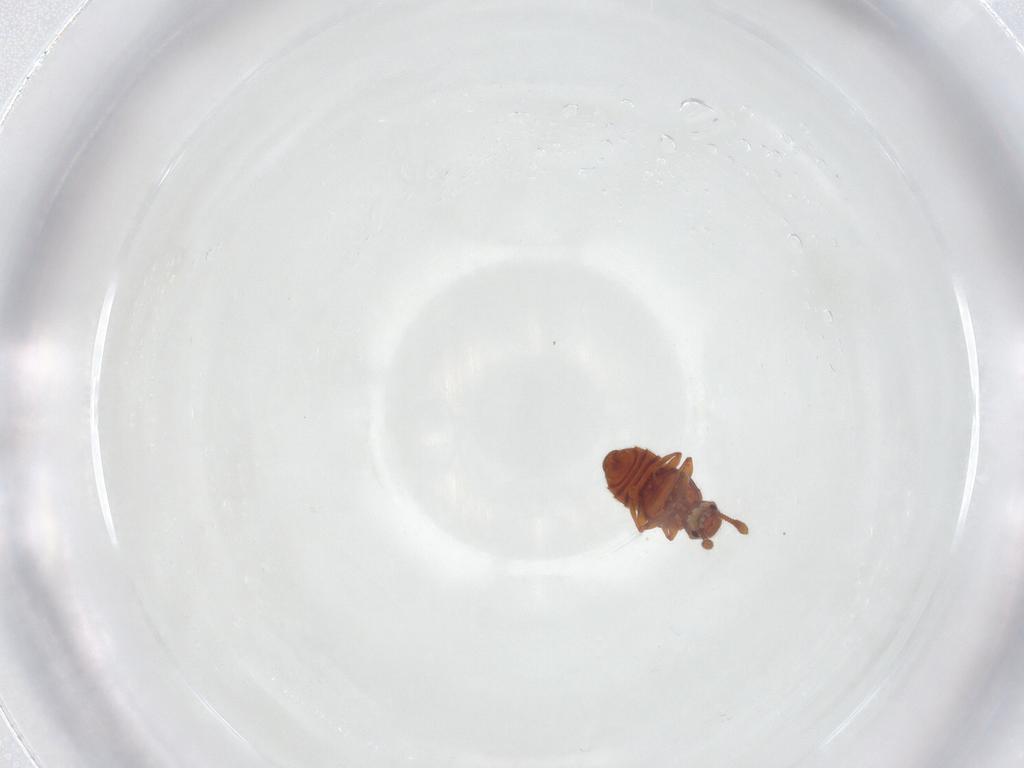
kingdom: Animalia
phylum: Arthropoda
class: Insecta
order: Coleoptera
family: Staphylinidae
